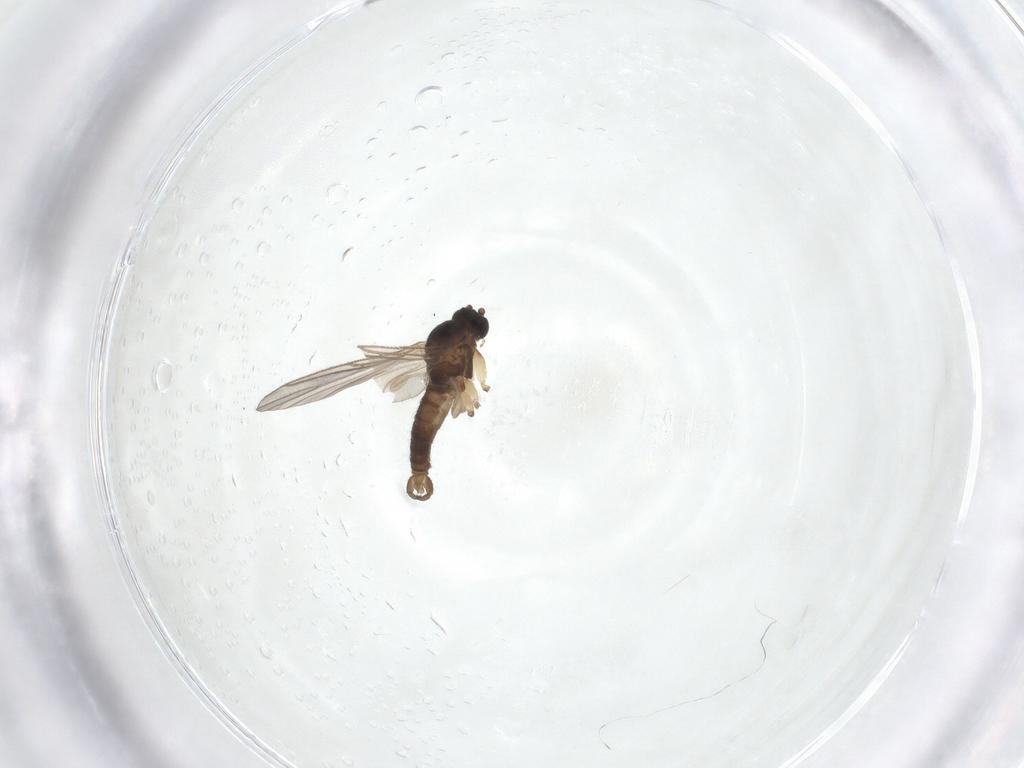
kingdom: Animalia
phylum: Arthropoda
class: Insecta
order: Diptera
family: Sciaridae
